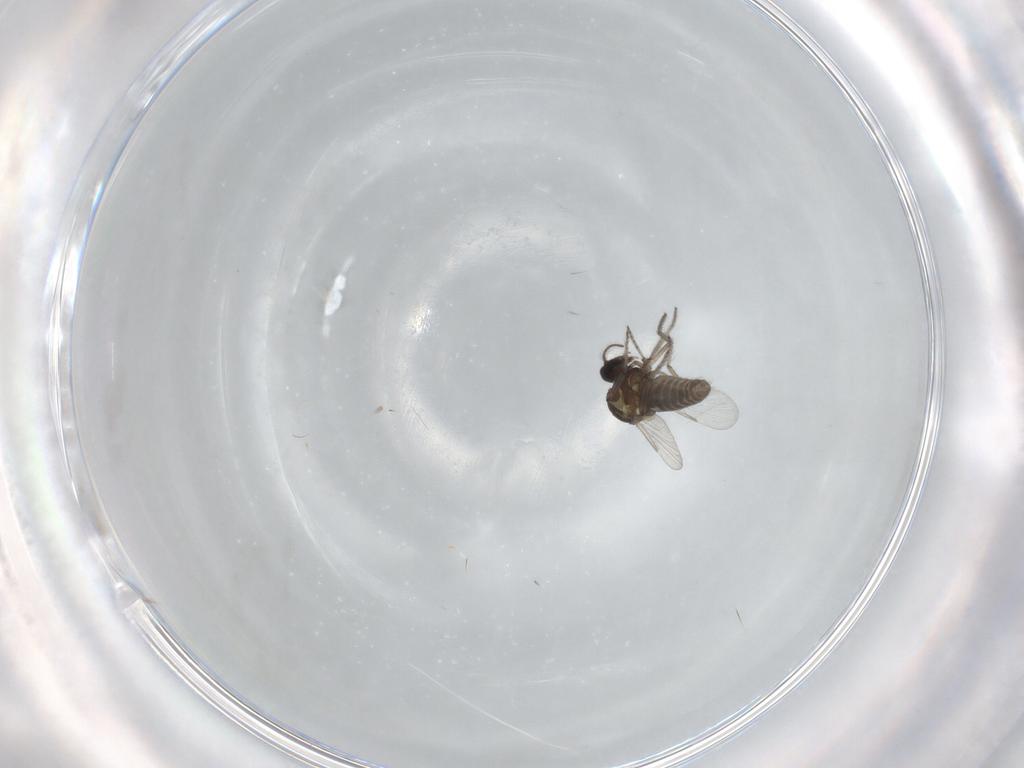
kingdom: Animalia
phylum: Arthropoda
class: Insecta
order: Diptera
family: Ceratopogonidae
